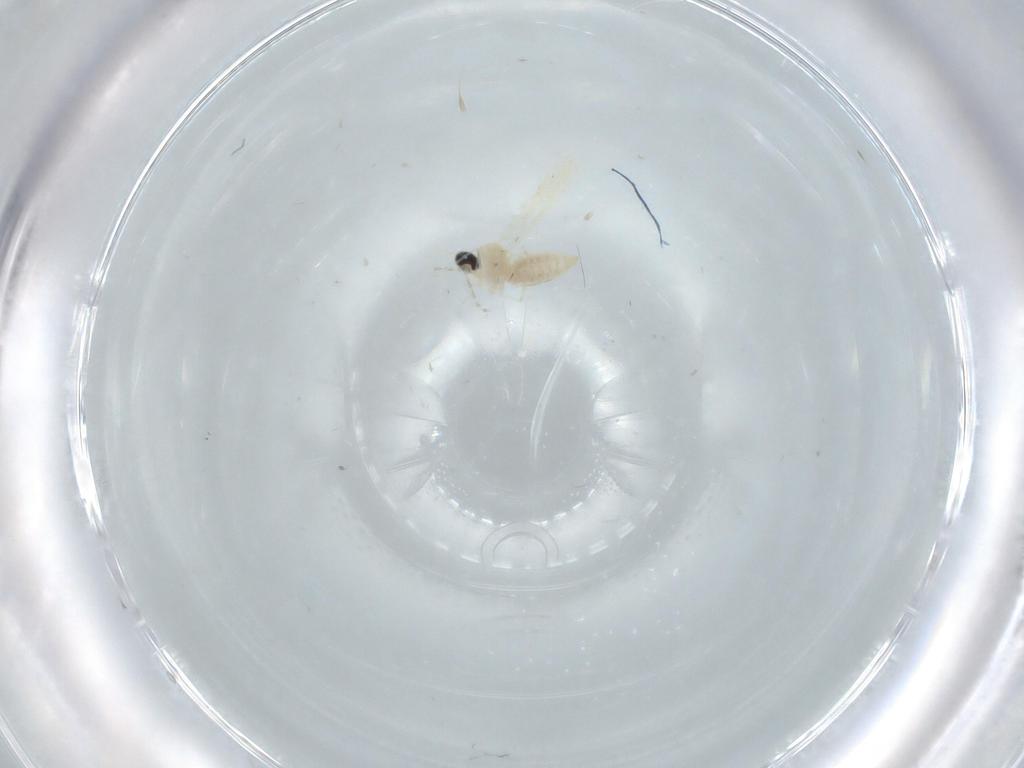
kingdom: Animalia
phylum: Arthropoda
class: Insecta
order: Diptera
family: Cecidomyiidae
